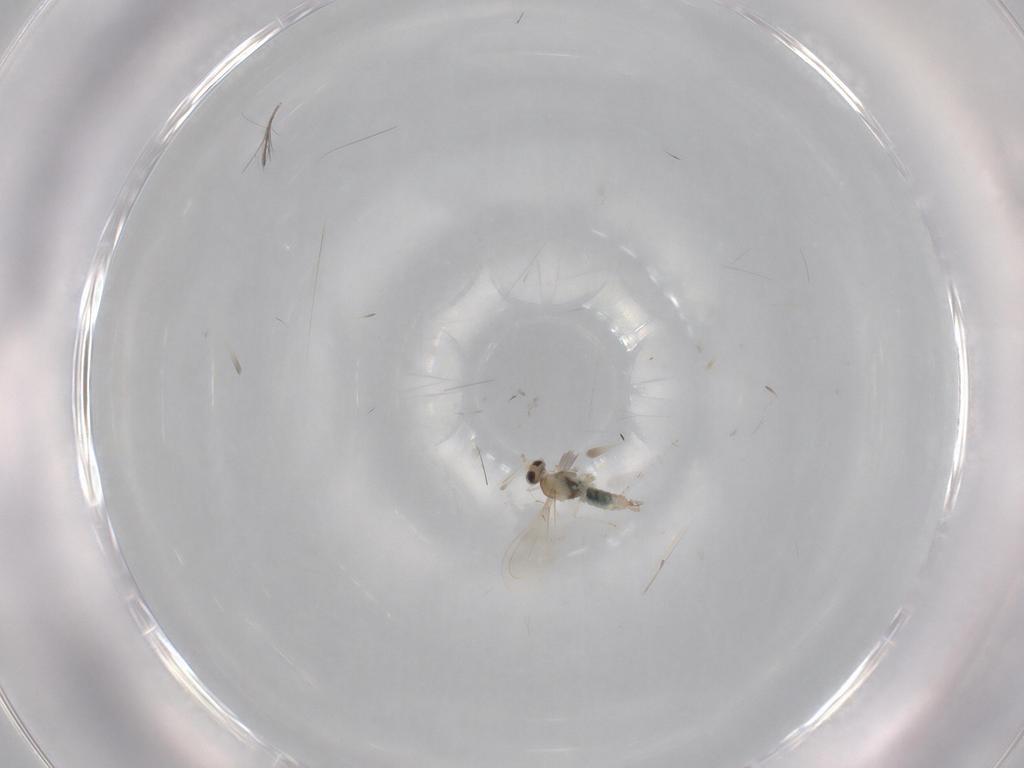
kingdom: Animalia
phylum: Arthropoda
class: Insecta
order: Diptera
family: Chironomidae
